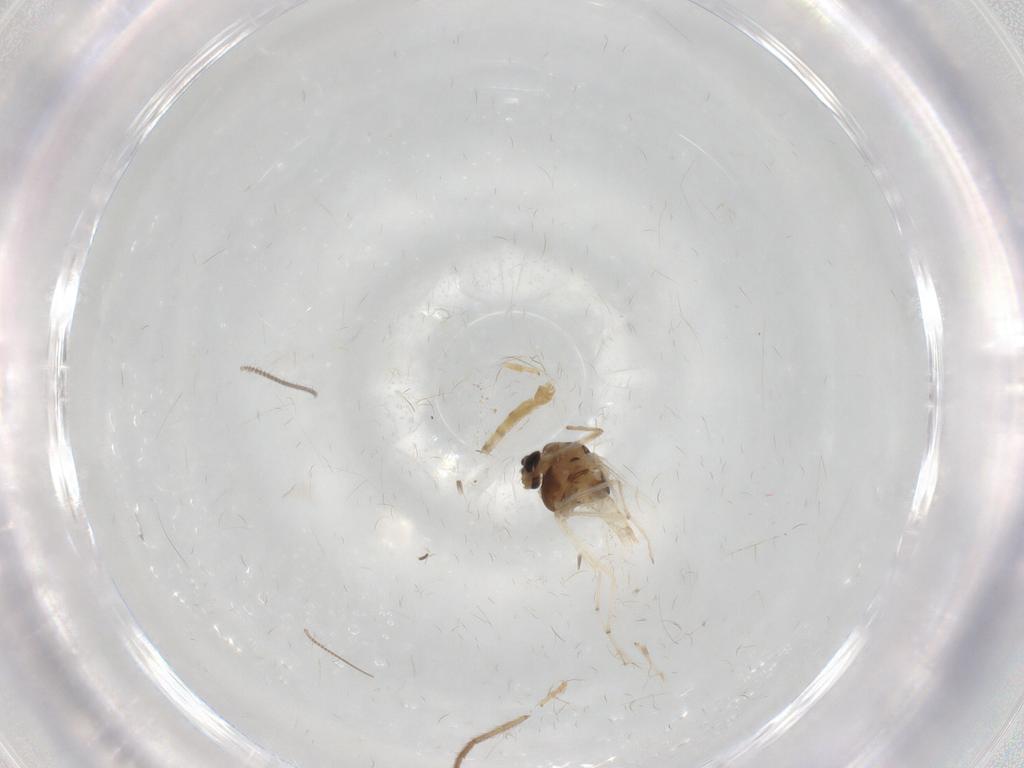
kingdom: Animalia
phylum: Arthropoda
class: Insecta
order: Diptera
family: Chironomidae
